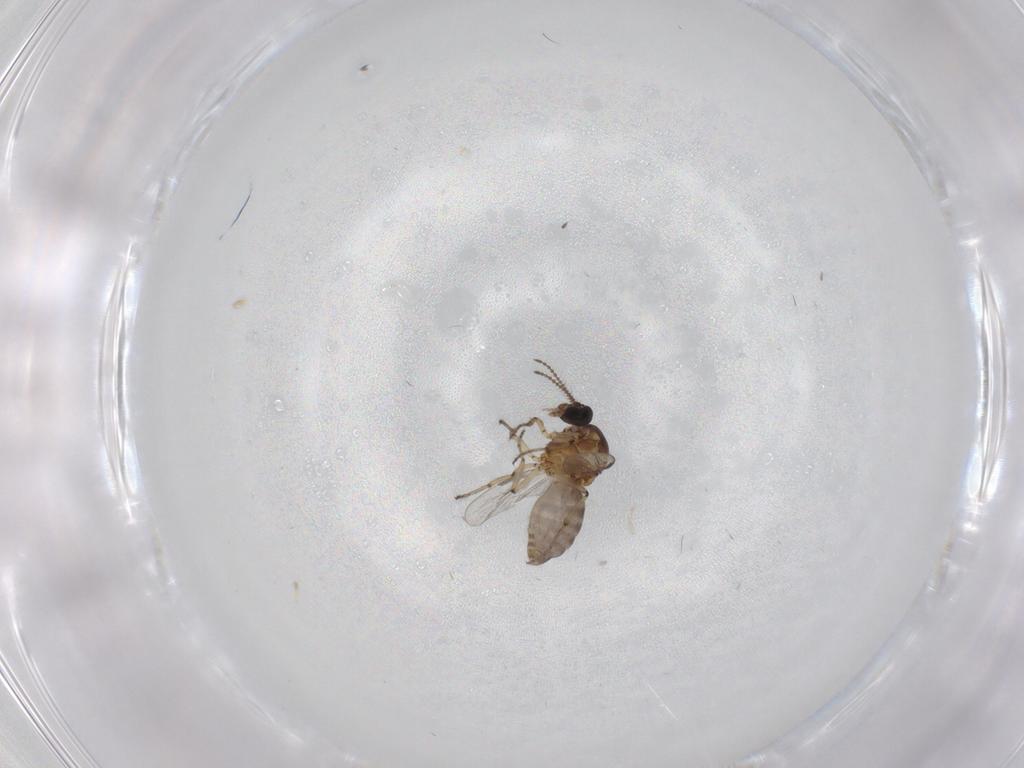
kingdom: Animalia
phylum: Arthropoda
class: Insecta
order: Diptera
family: Ceratopogonidae
